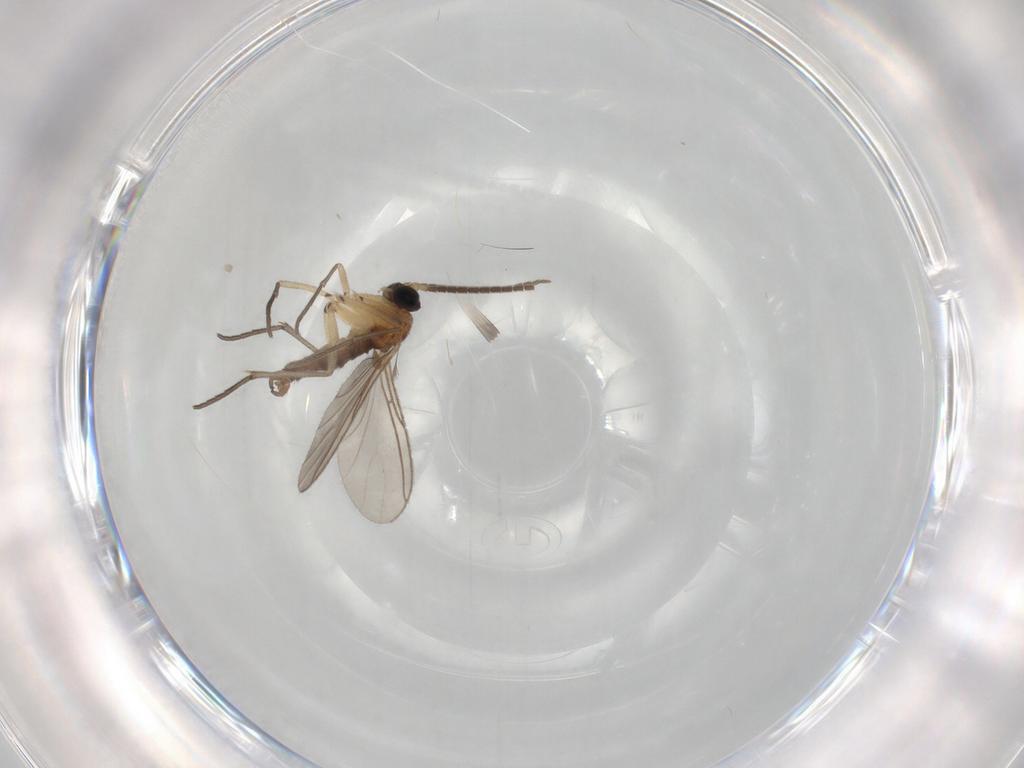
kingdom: Animalia
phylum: Arthropoda
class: Insecta
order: Diptera
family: Sciaridae
